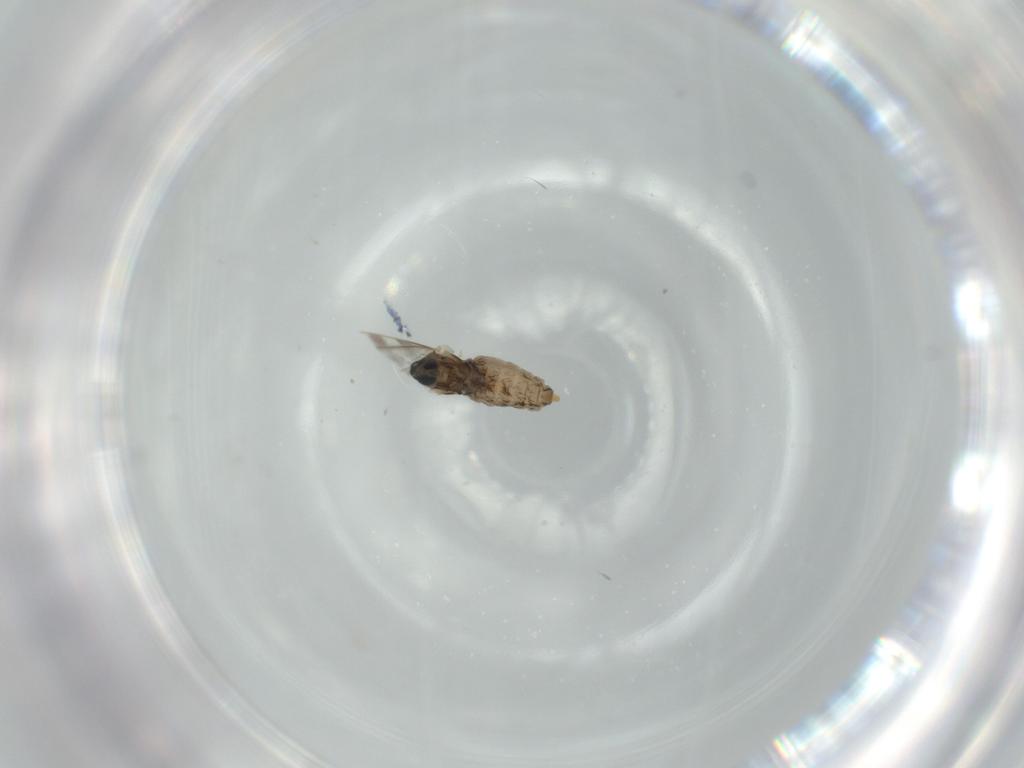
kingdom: Animalia
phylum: Arthropoda
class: Insecta
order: Diptera
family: Cecidomyiidae
